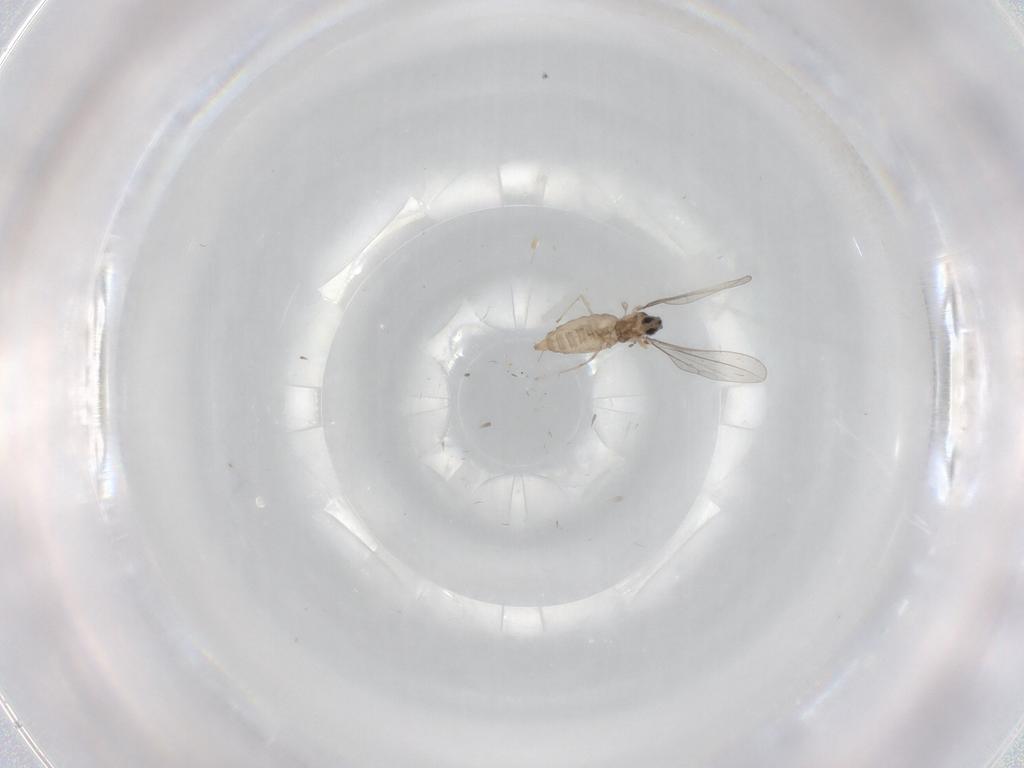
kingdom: Animalia
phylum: Arthropoda
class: Insecta
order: Diptera
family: Cecidomyiidae
